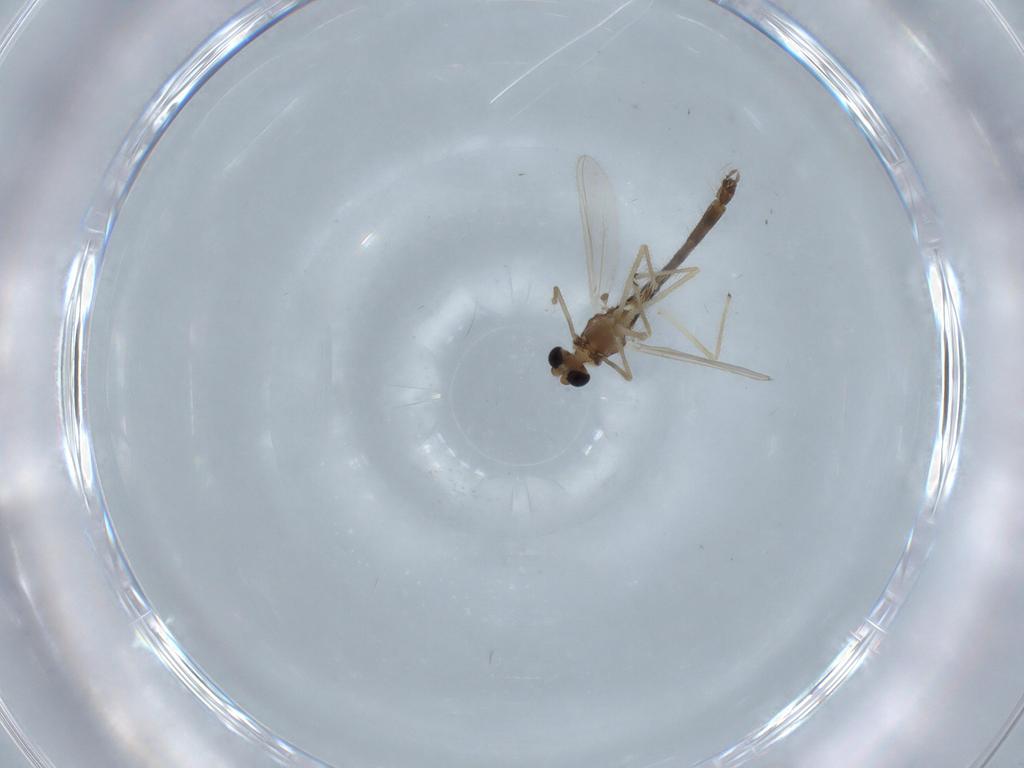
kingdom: Animalia
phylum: Arthropoda
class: Insecta
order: Diptera
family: Chironomidae
